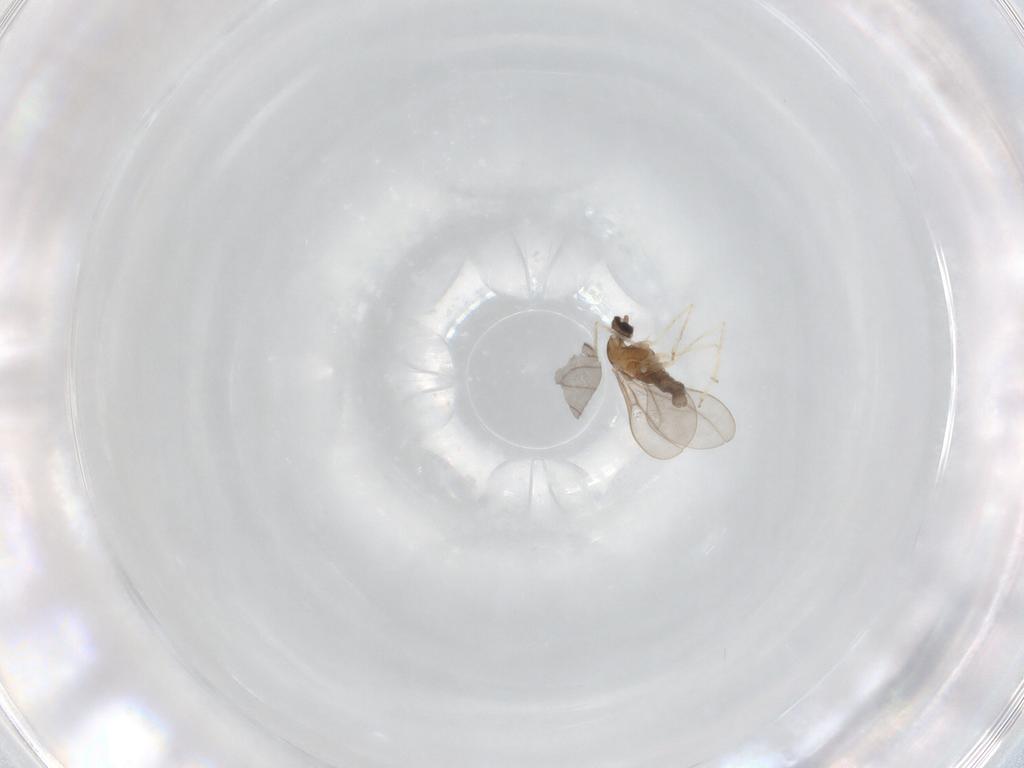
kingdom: Animalia
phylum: Arthropoda
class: Insecta
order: Diptera
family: Cecidomyiidae
